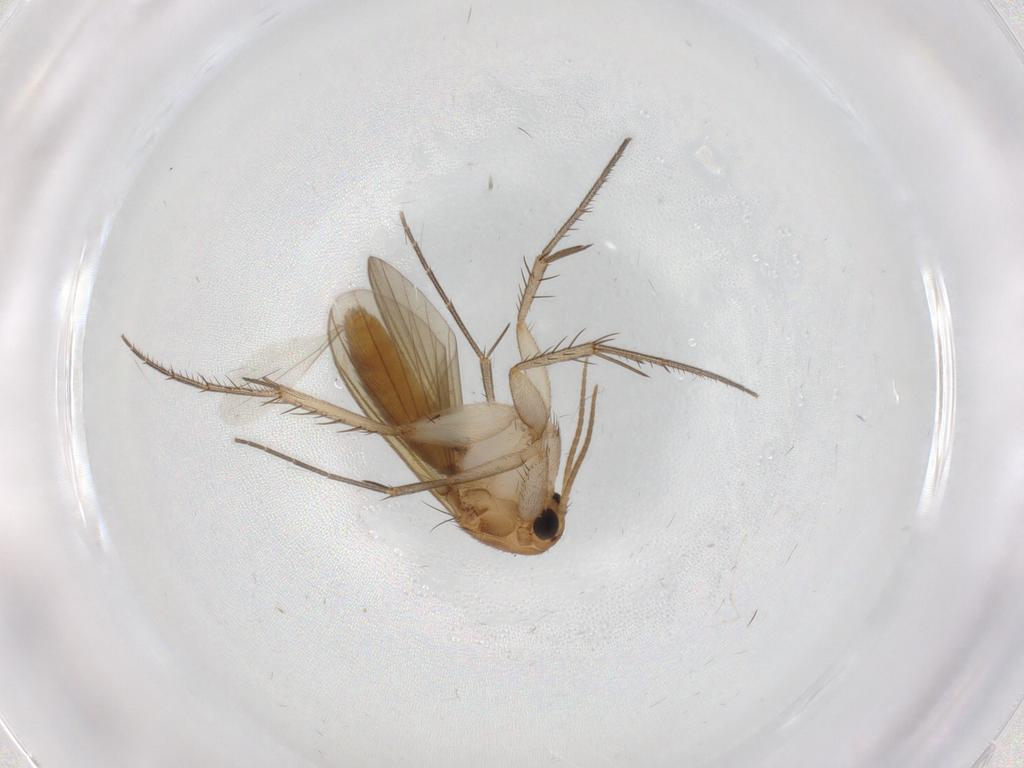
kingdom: Animalia
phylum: Arthropoda
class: Insecta
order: Diptera
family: Mycetophilidae
